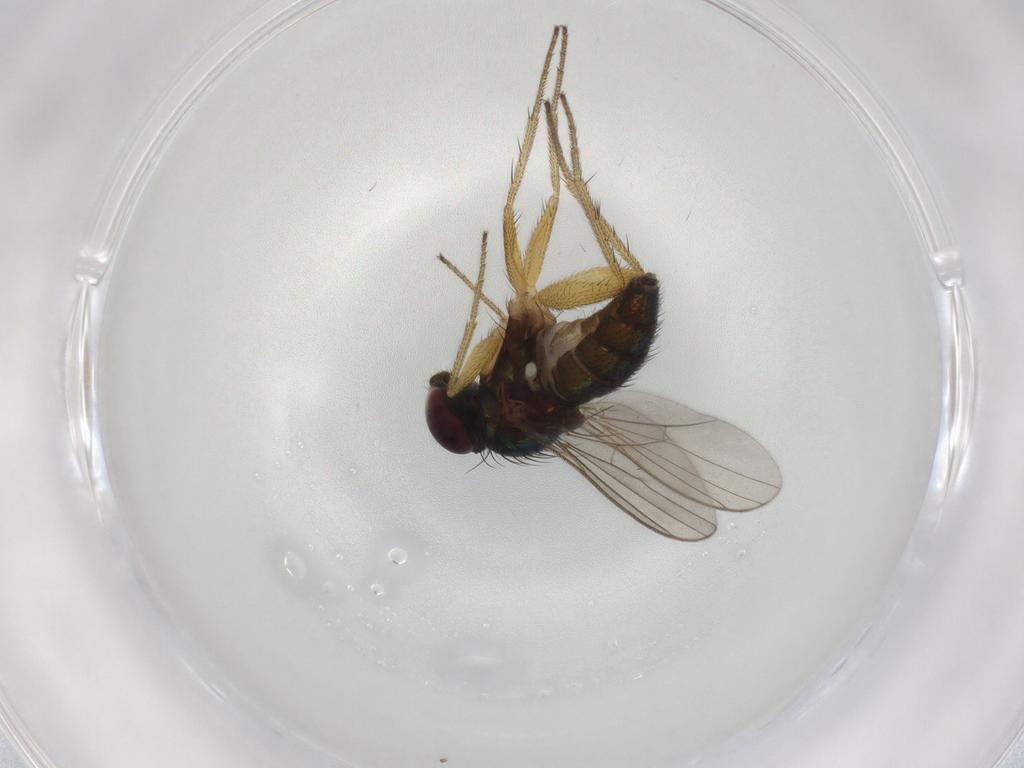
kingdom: Animalia
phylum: Arthropoda
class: Insecta
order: Diptera
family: Dolichopodidae
